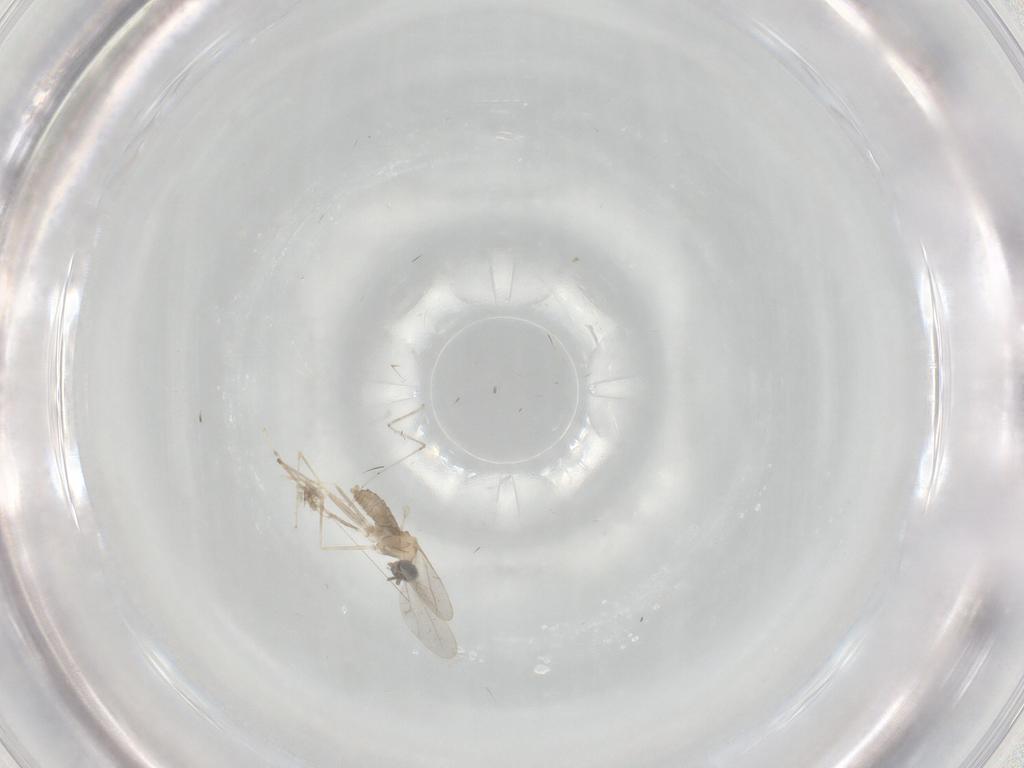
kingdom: Animalia
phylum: Arthropoda
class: Insecta
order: Diptera
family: Cecidomyiidae
